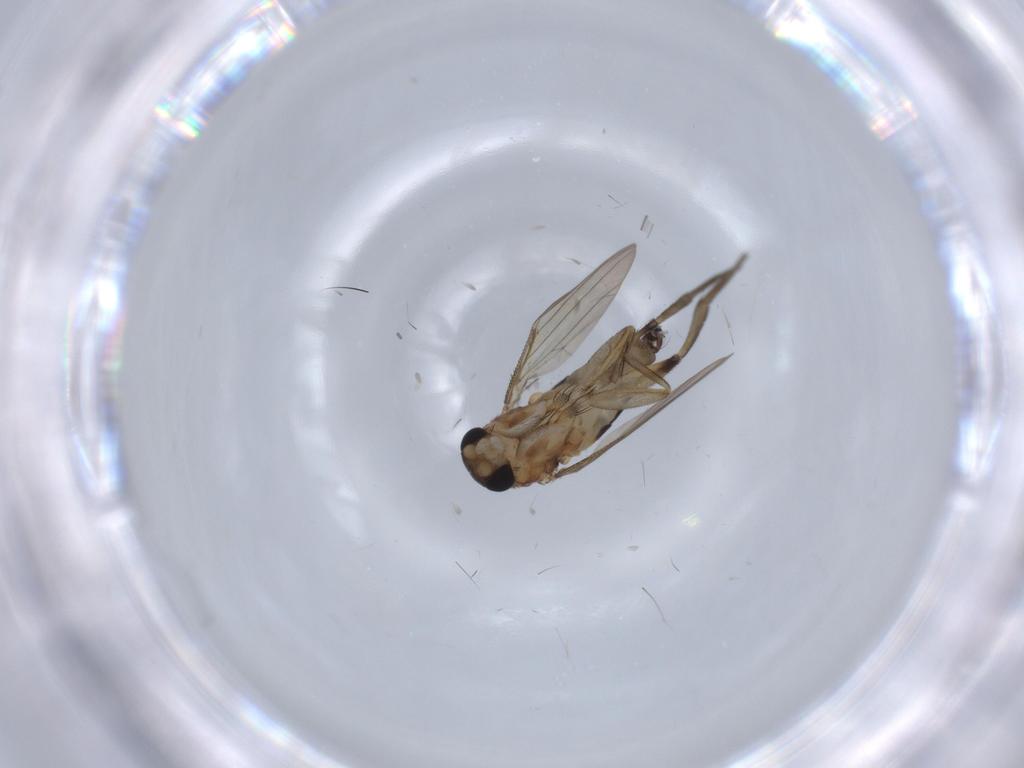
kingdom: Animalia
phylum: Arthropoda
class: Insecta
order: Diptera
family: Phoridae
